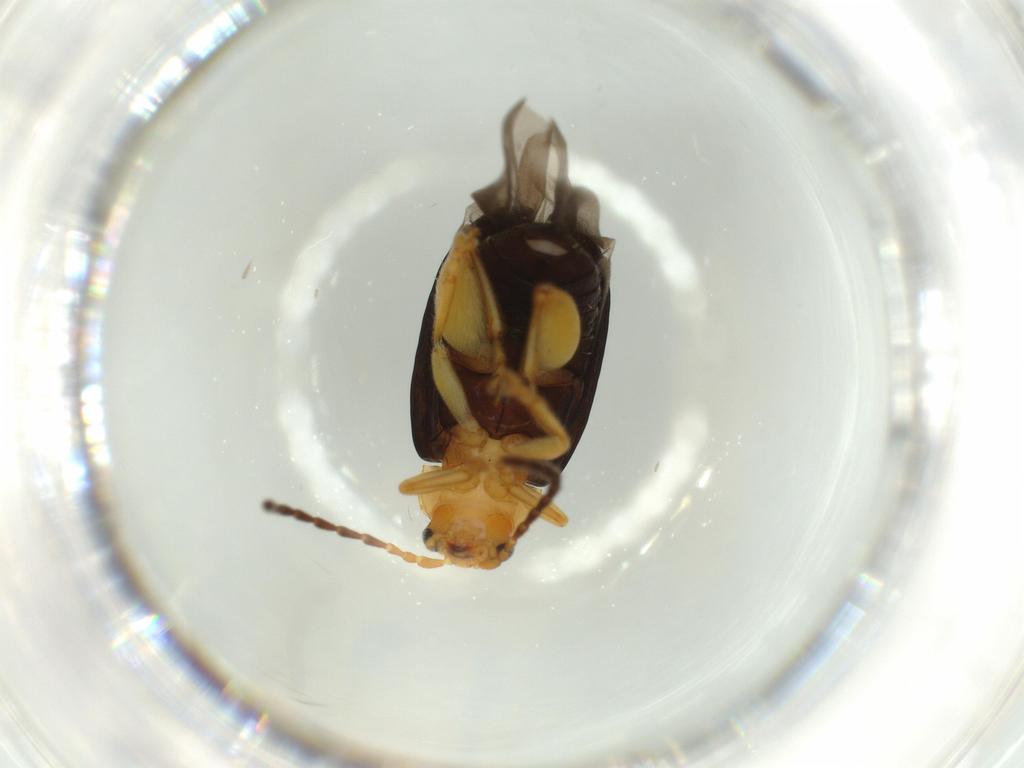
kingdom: Animalia
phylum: Arthropoda
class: Insecta
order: Coleoptera
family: Chrysomelidae
